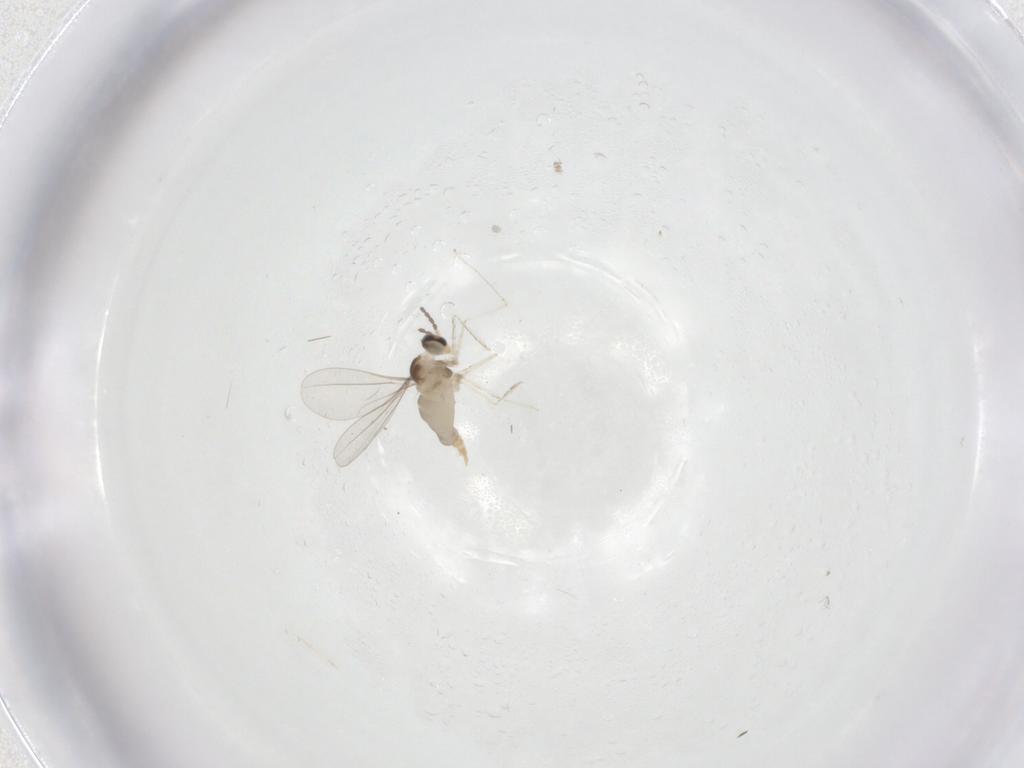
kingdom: Animalia
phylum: Arthropoda
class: Insecta
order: Diptera
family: Cecidomyiidae
